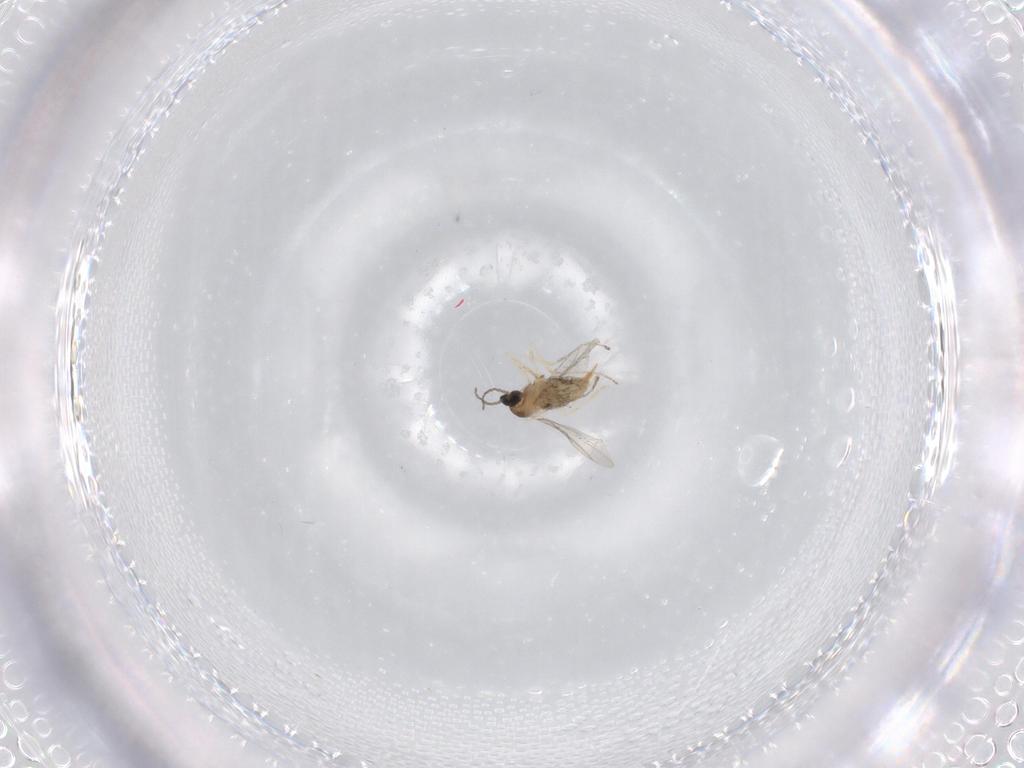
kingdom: Animalia
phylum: Arthropoda
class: Insecta
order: Diptera
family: Cecidomyiidae
